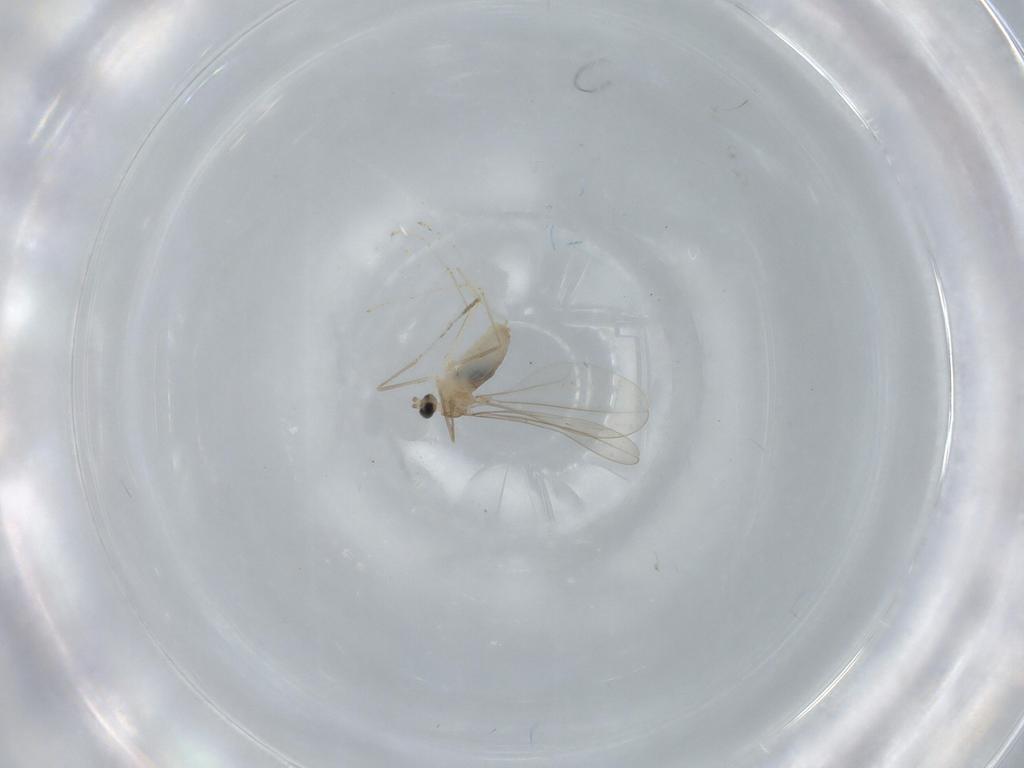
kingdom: Animalia
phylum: Arthropoda
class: Insecta
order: Diptera
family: Cecidomyiidae
